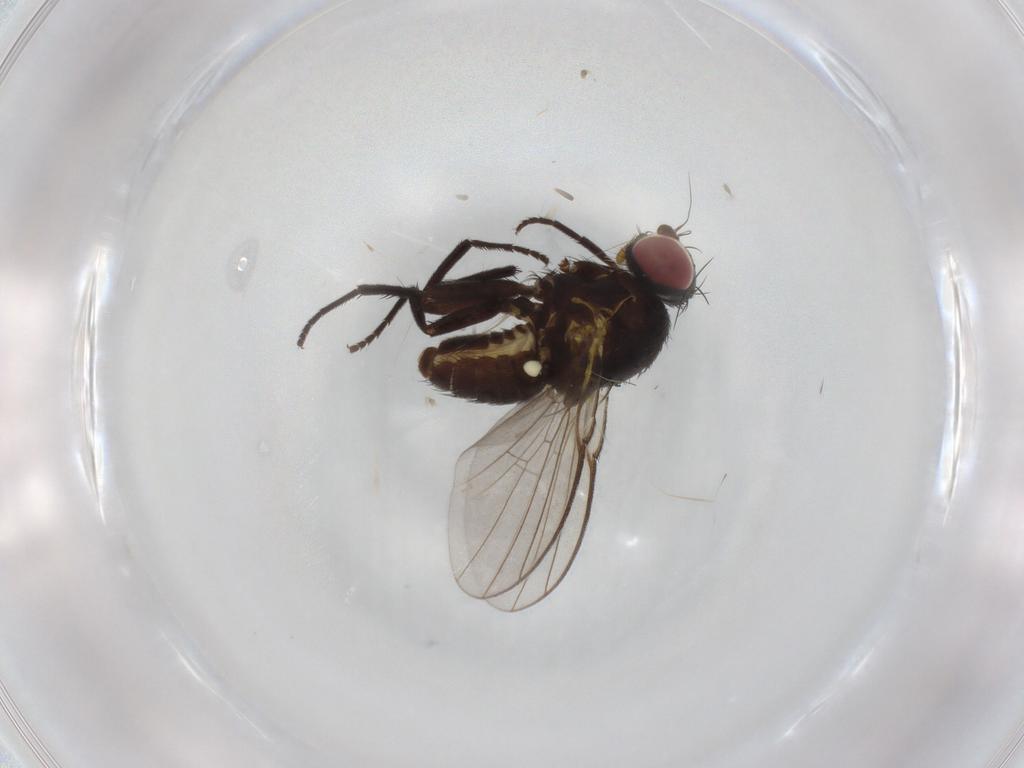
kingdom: Animalia
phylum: Arthropoda
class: Insecta
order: Diptera
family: Agromyzidae
